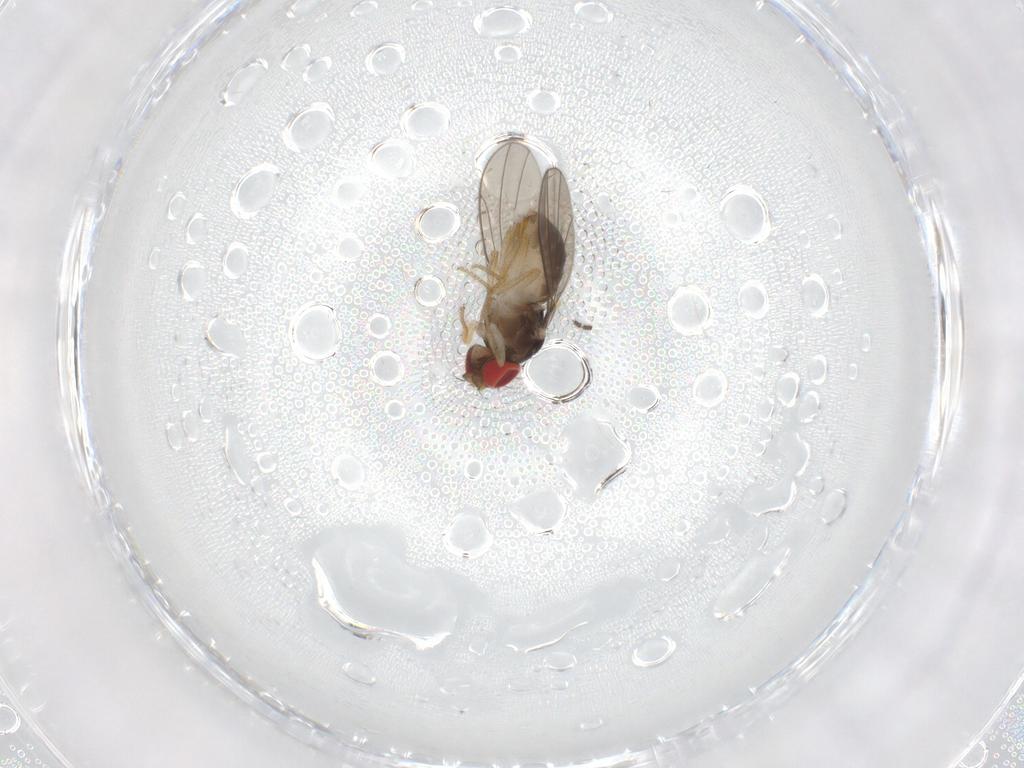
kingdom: Animalia
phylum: Arthropoda
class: Insecta
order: Diptera
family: Drosophilidae
